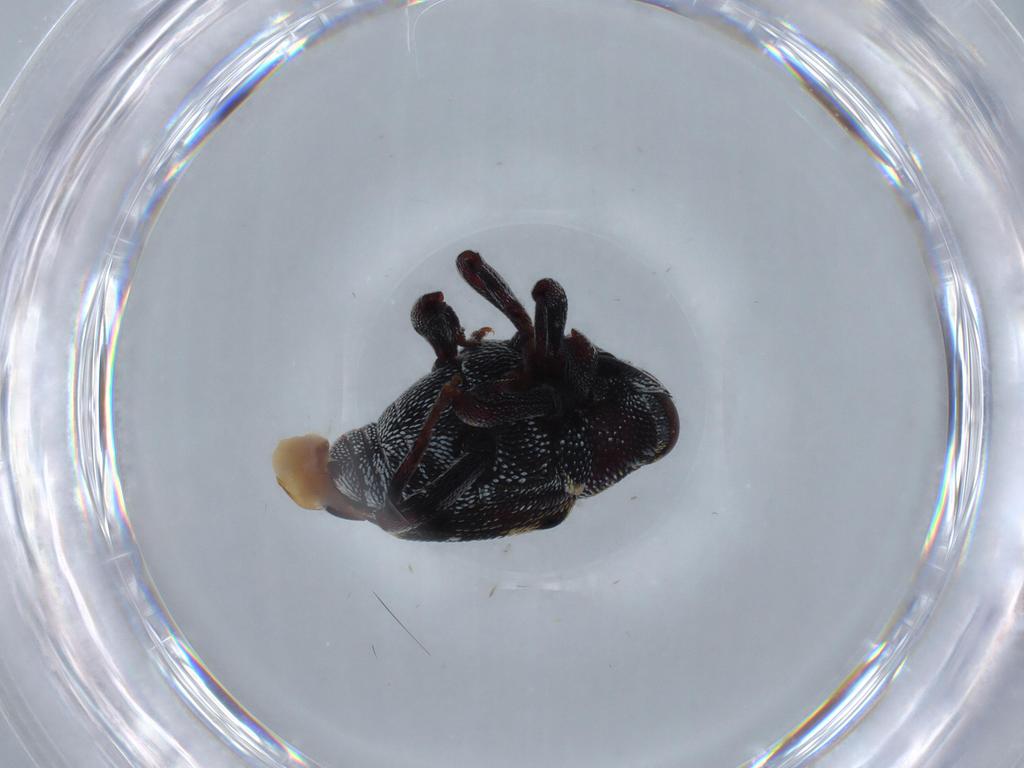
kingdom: Animalia
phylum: Arthropoda
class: Insecta
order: Coleoptera
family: Curculionidae
